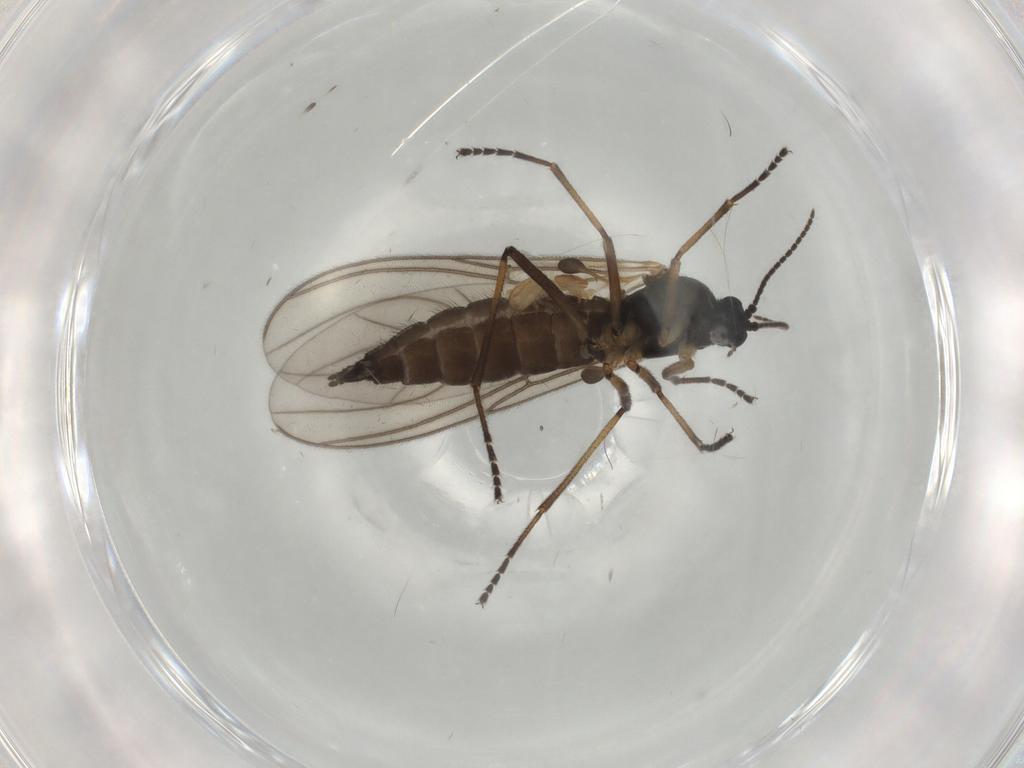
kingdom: Animalia
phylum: Arthropoda
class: Insecta
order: Diptera
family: Sciaridae
